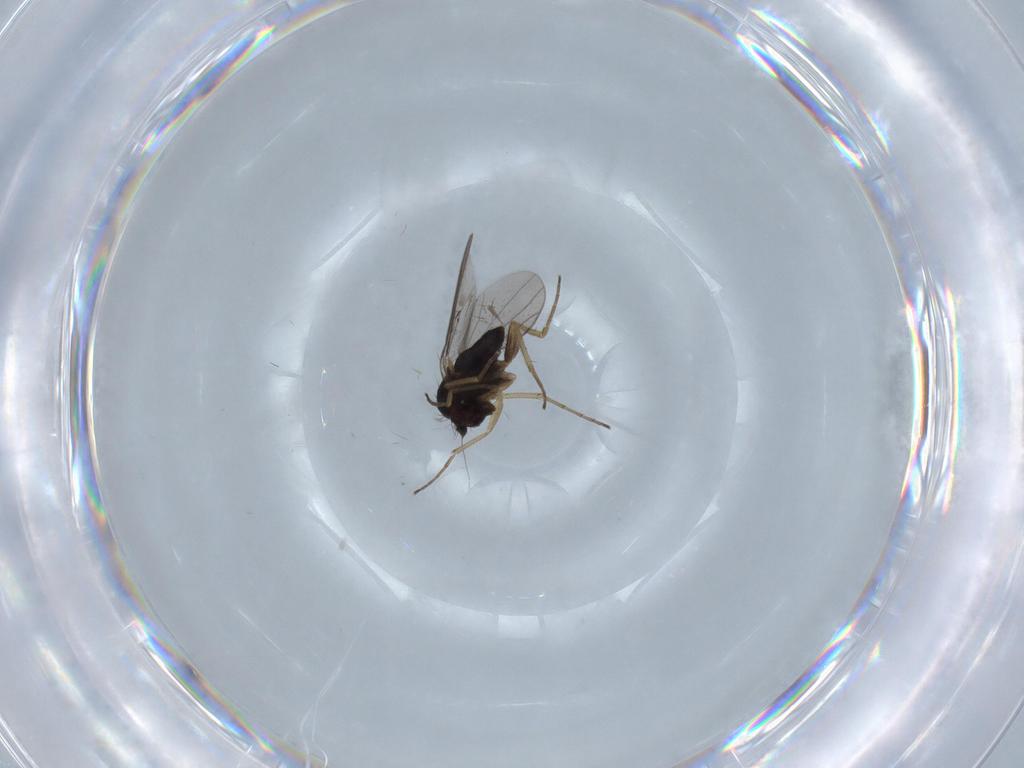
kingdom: Animalia
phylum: Arthropoda
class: Insecta
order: Diptera
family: Dolichopodidae
